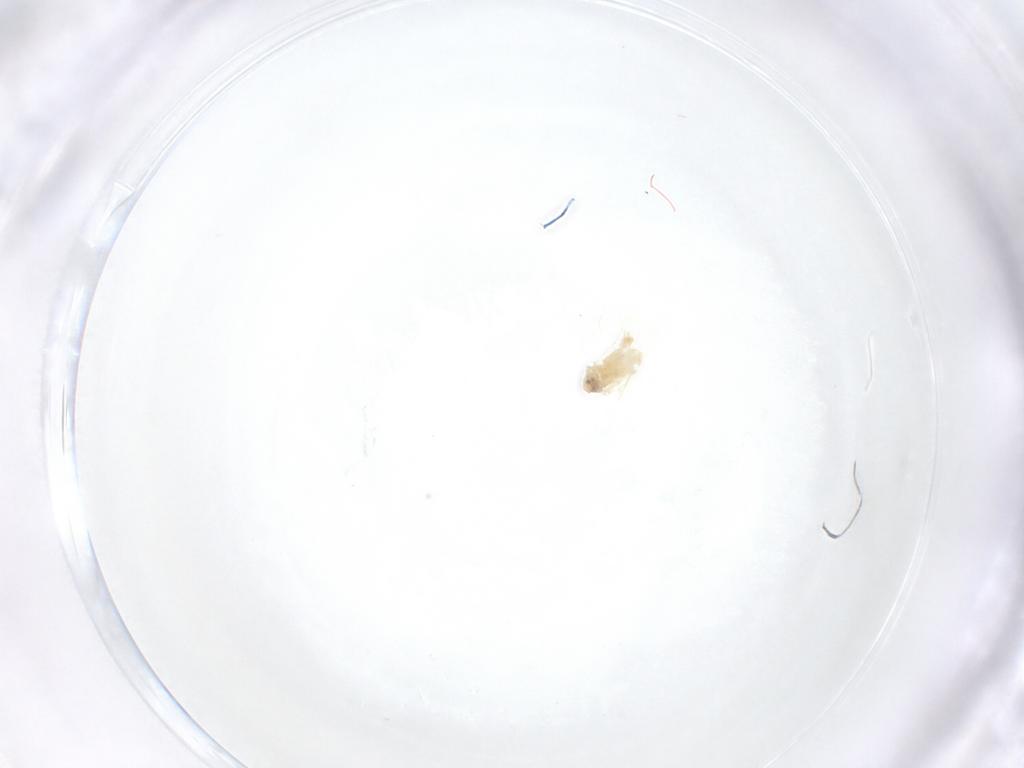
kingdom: Animalia
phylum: Arthropoda
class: Insecta
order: Hemiptera
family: Aleyrodidae
